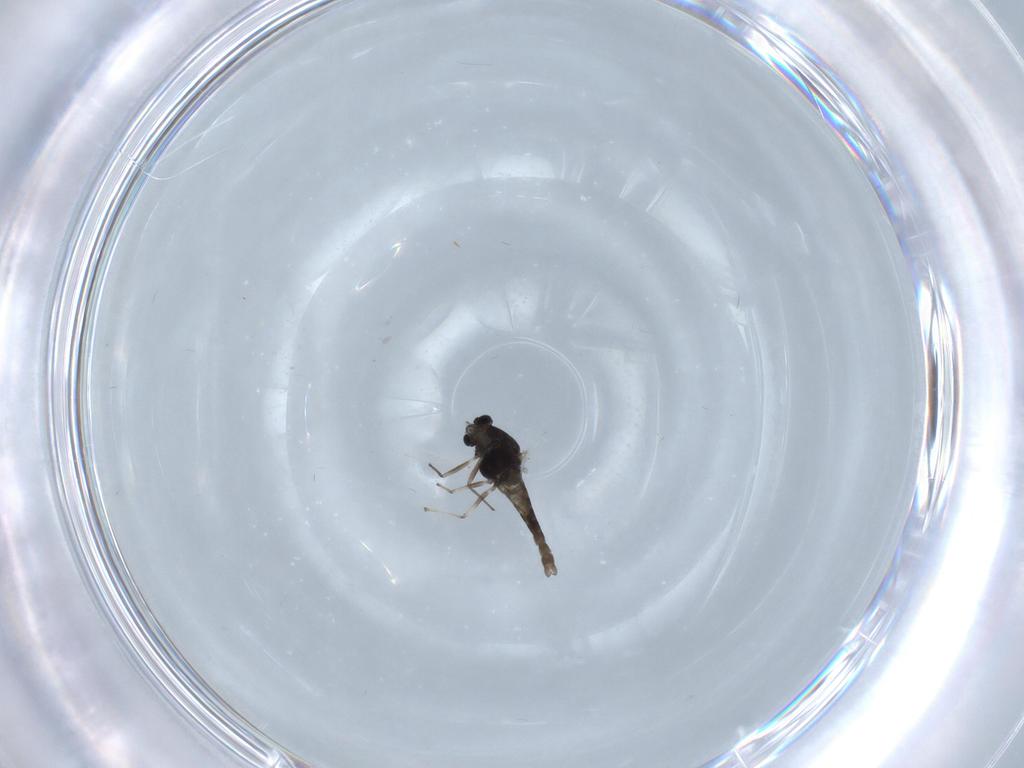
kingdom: Animalia
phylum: Arthropoda
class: Insecta
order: Diptera
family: Chironomidae
